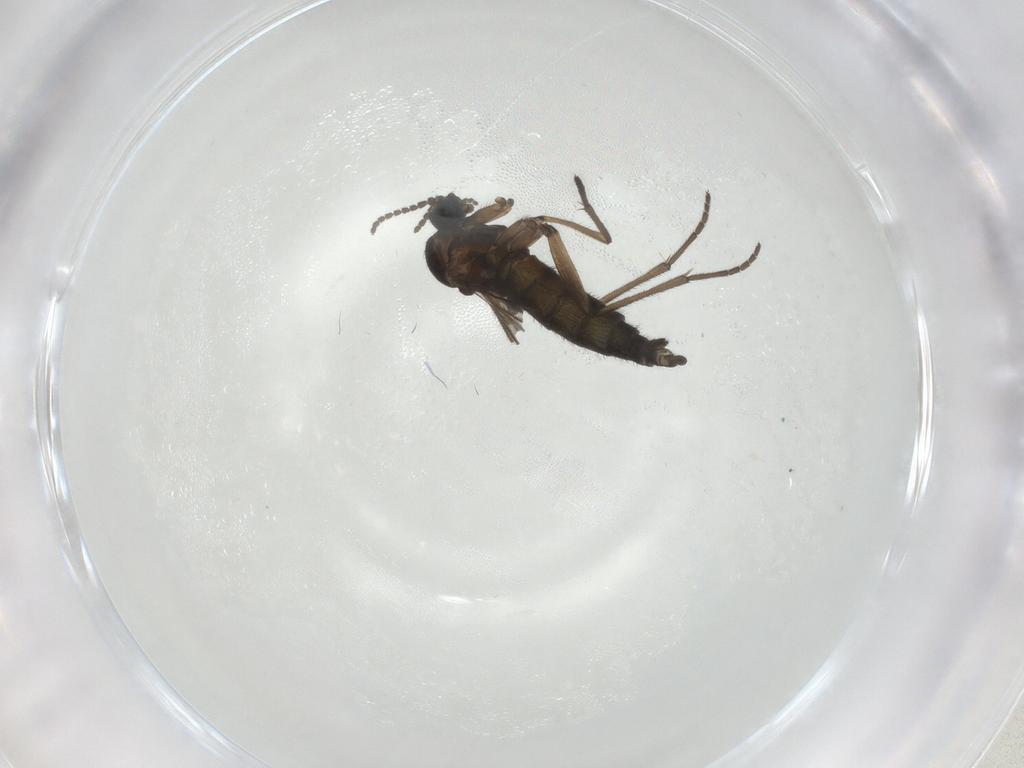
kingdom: Animalia
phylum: Arthropoda
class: Insecta
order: Diptera
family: Sciaridae
